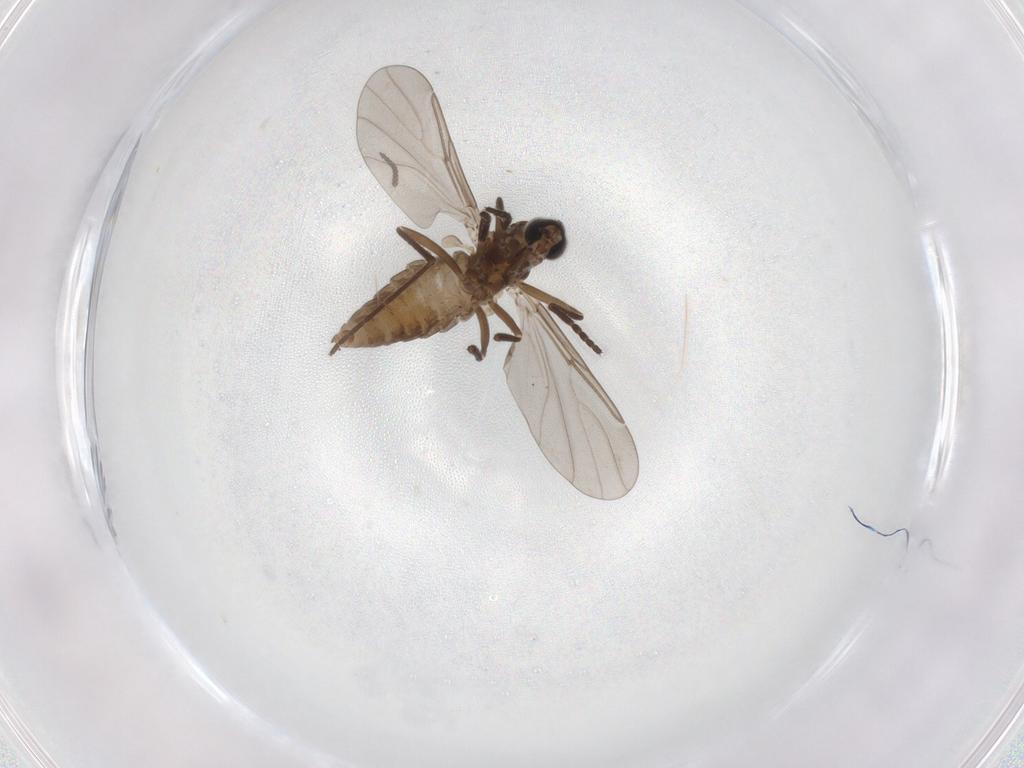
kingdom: Animalia
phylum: Arthropoda
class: Insecta
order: Diptera
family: Cecidomyiidae
